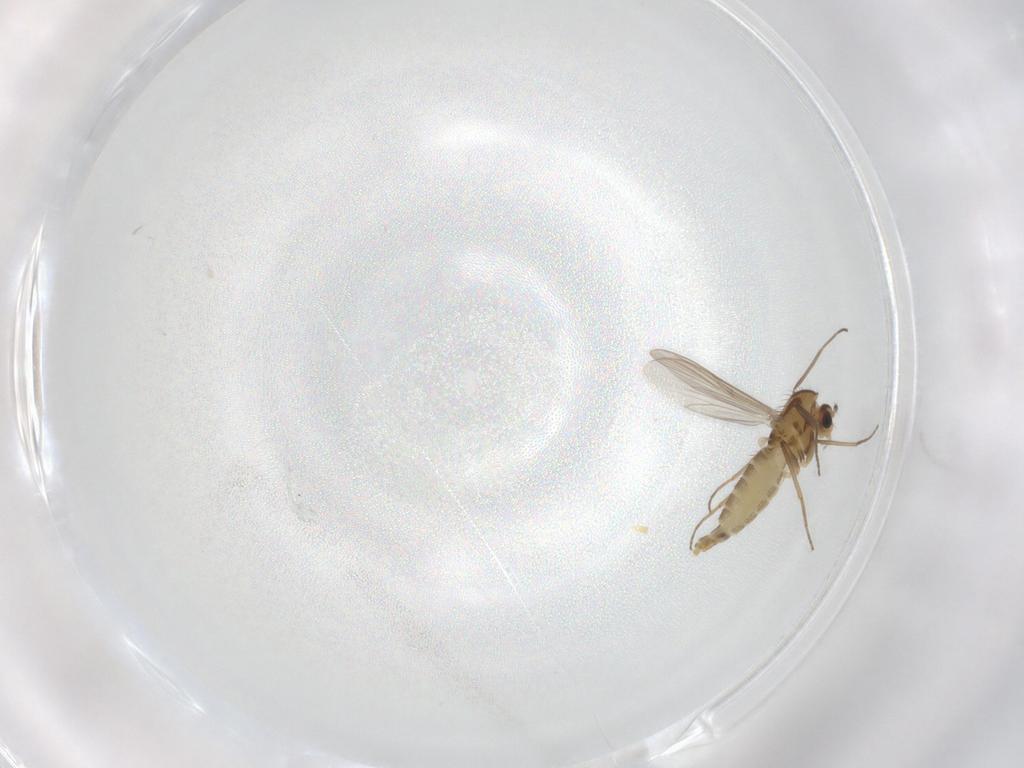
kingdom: Animalia
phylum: Arthropoda
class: Insecta
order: Diptera
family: Chironomidae
